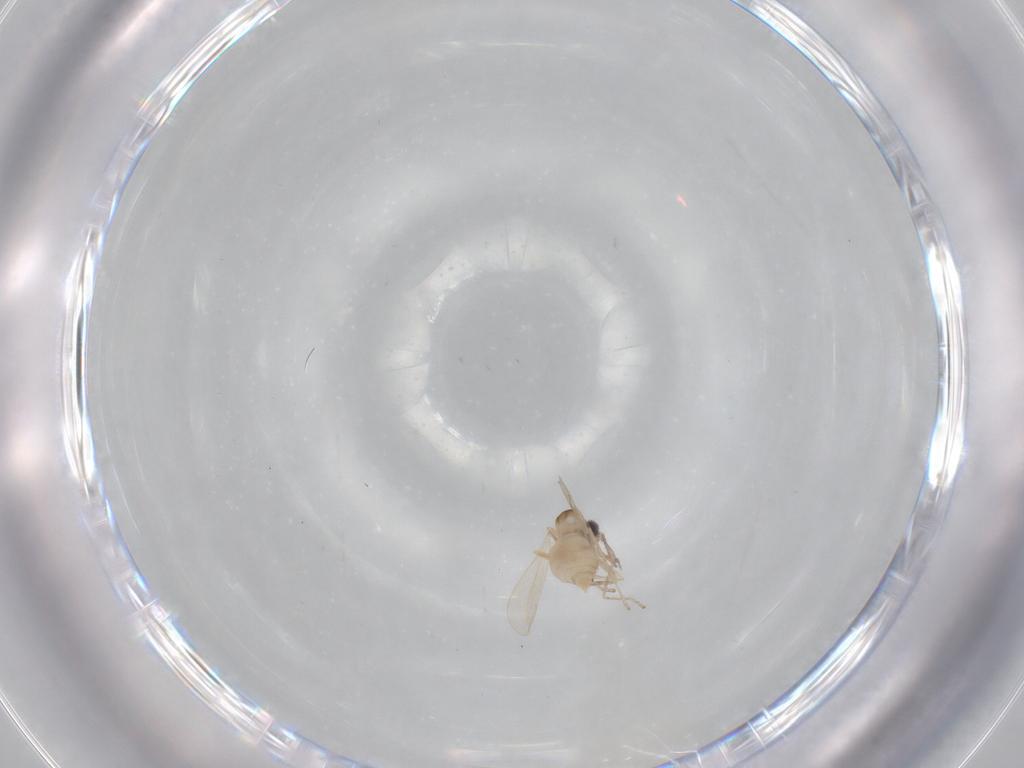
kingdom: Animalia
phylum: Arthropoda
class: Insecta
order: Diptera
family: Cecidomyiidae
